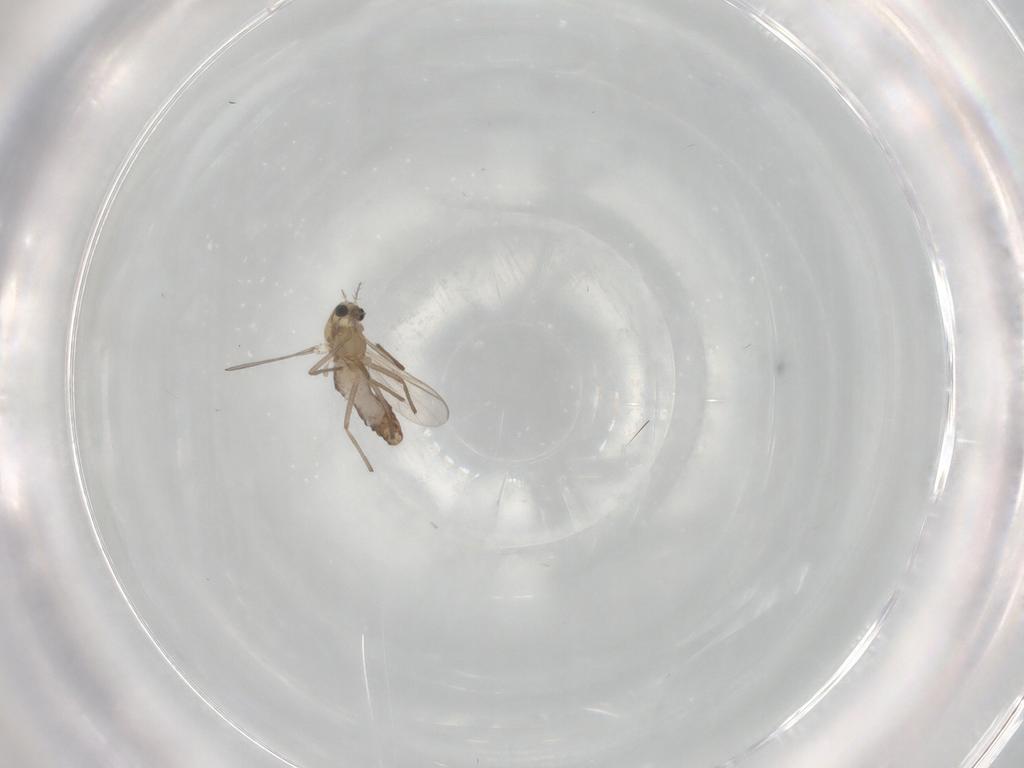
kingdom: Animalia
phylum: Arthropoda
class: Insecta
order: Diptera
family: Chironomidae
